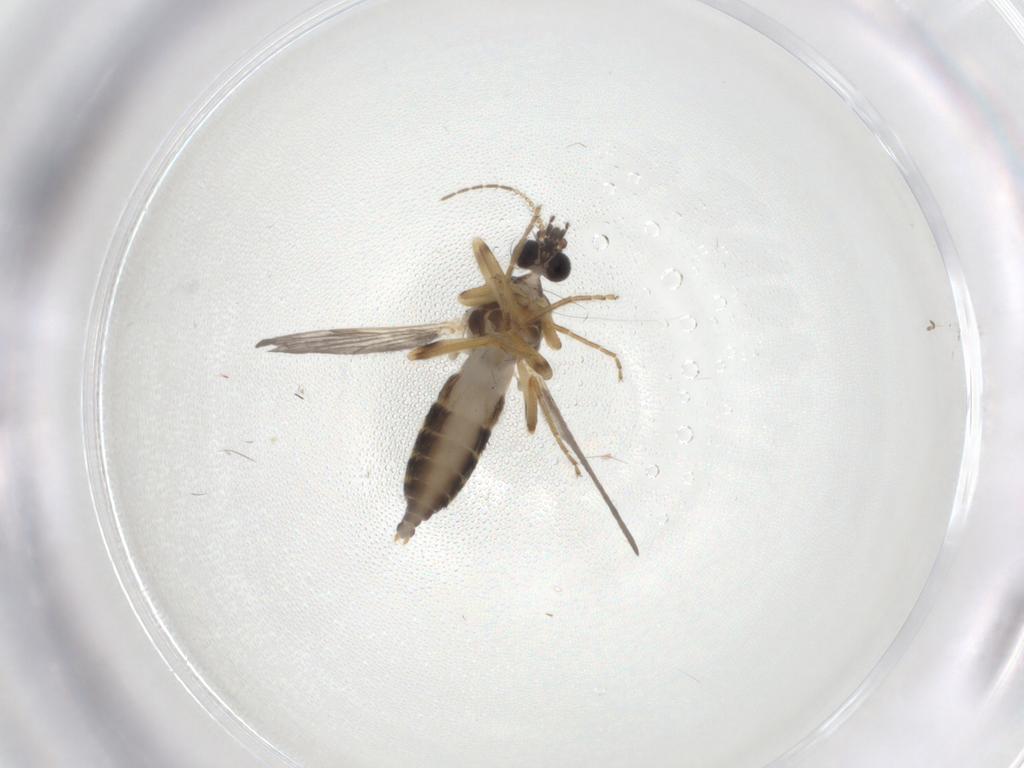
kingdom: Animalia
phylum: Arthropoda
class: Insecta
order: Diptera
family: Ceratopogonidae
